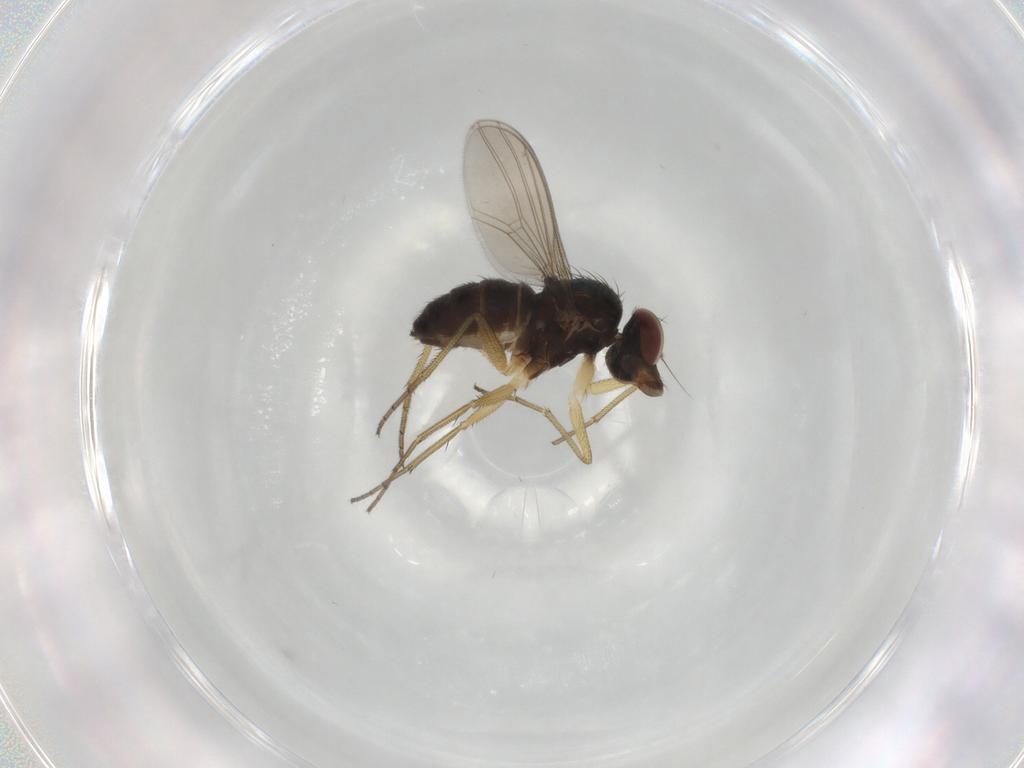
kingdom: Animalia
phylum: Arthropoda
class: Insecta
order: Diptera
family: Dolichopodidae
